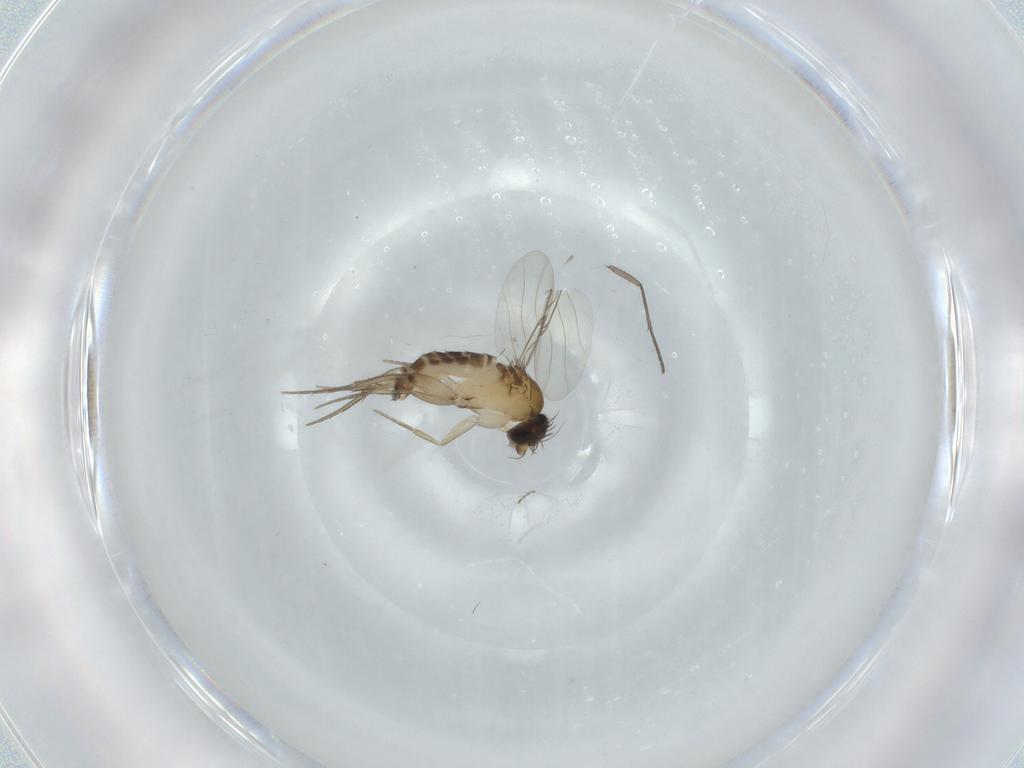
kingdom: Animalia
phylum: Arthropoda
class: Insecta
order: Diptera
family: Phoridae
